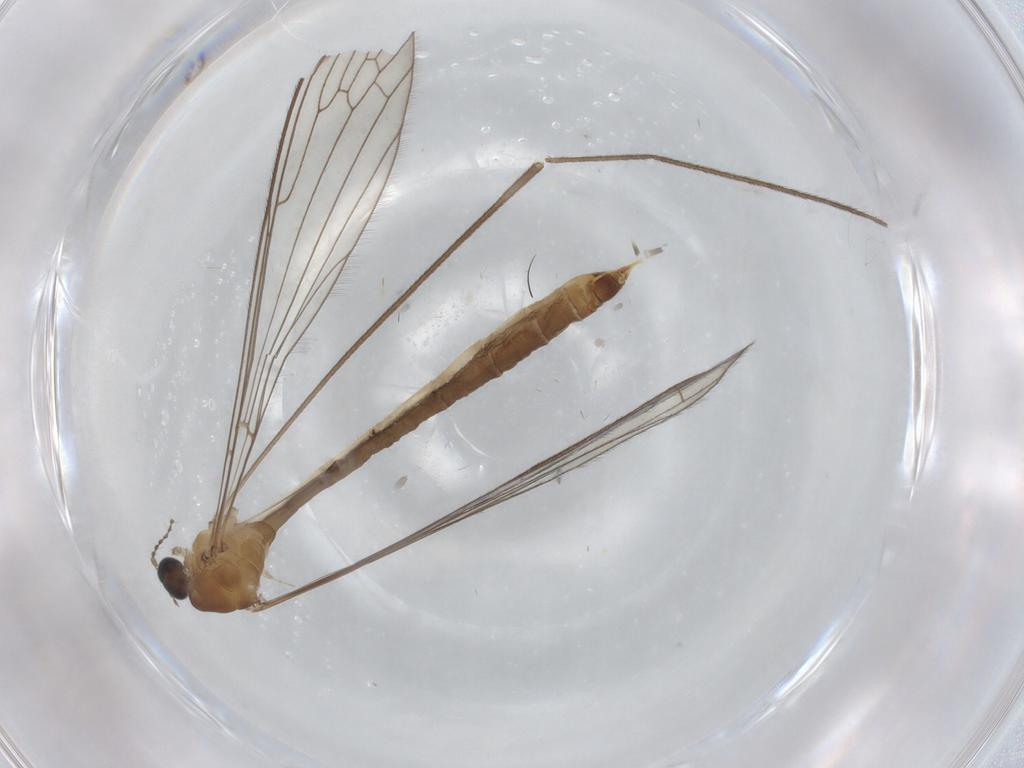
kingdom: Animalia
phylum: Arthropoda
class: Insecta
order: Diptera
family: Limoniidae
